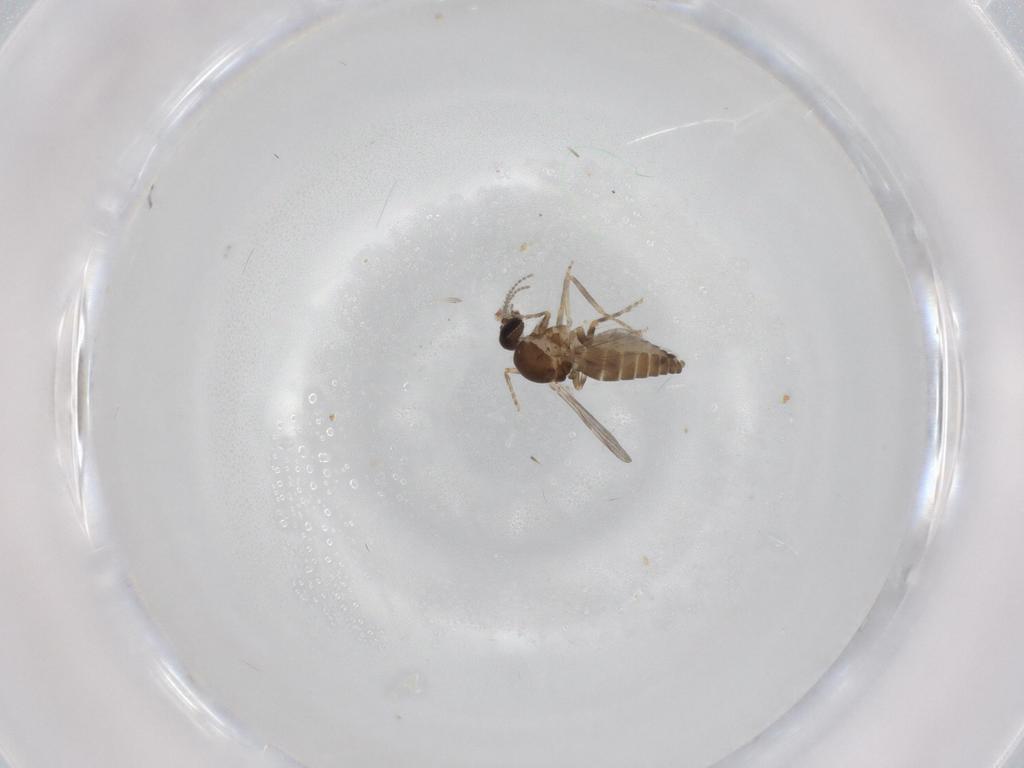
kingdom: Animalia
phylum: Arthropoda
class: Insecta
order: Diptera
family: Ceratopogonidae
